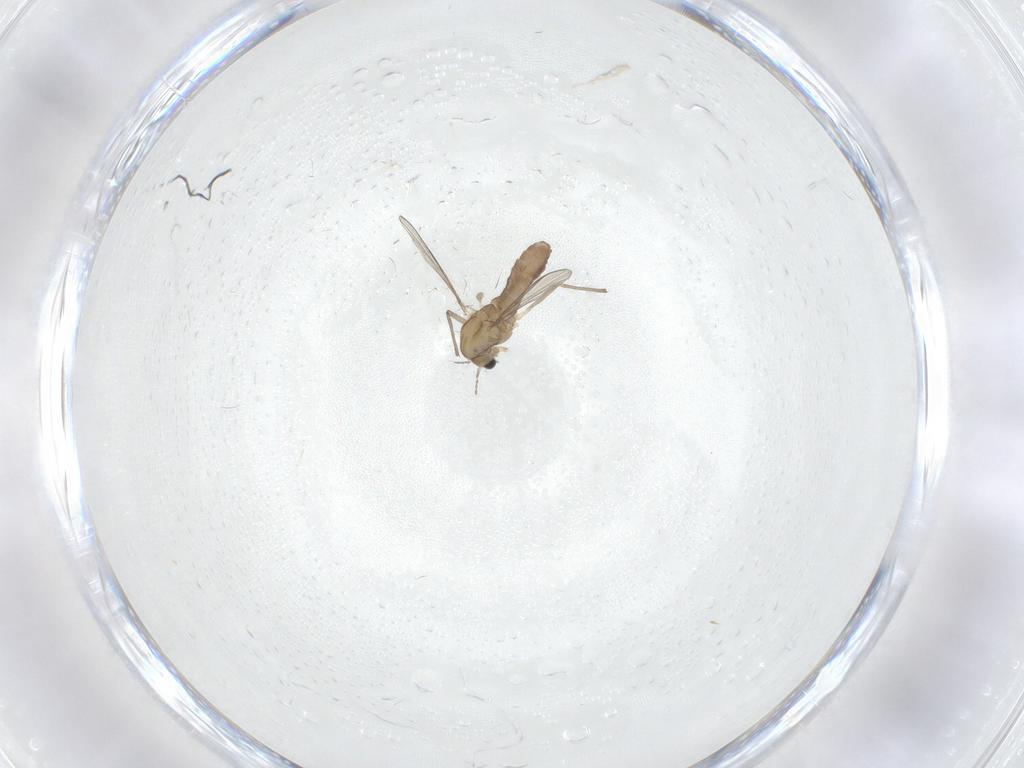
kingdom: Animalia
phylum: Arthropoda
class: Insecta
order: Diptera
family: Chironomidae
